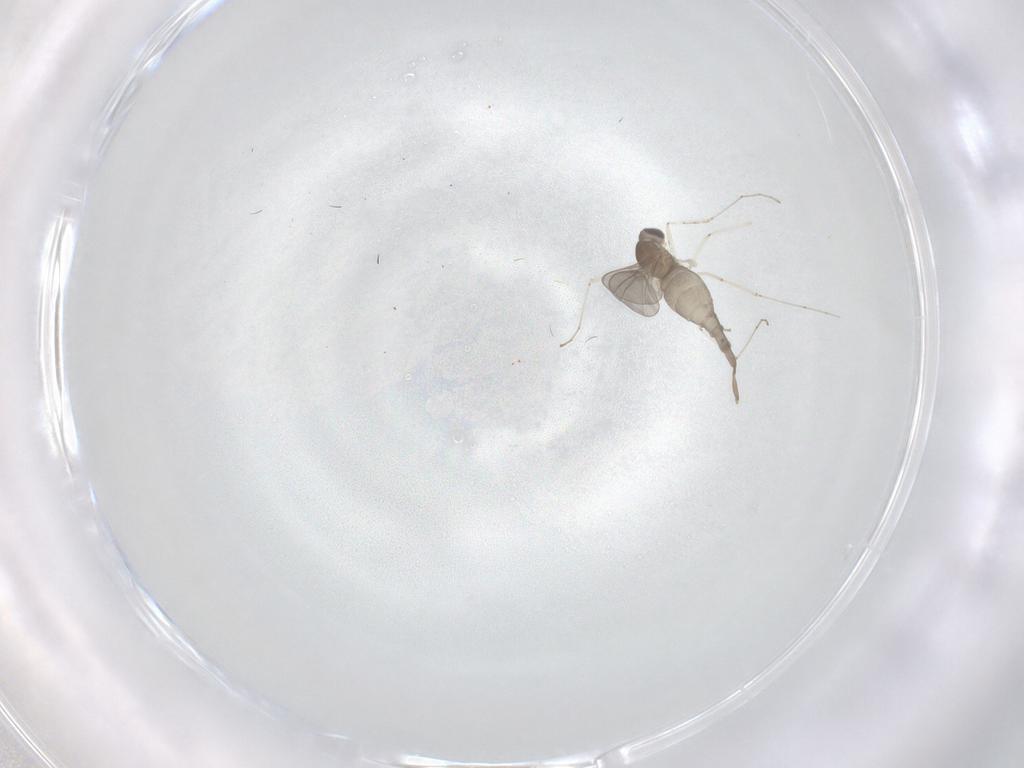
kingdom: Animalia
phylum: Arthropoda
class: Insecta
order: Diptera
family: Cecidomyiidae
